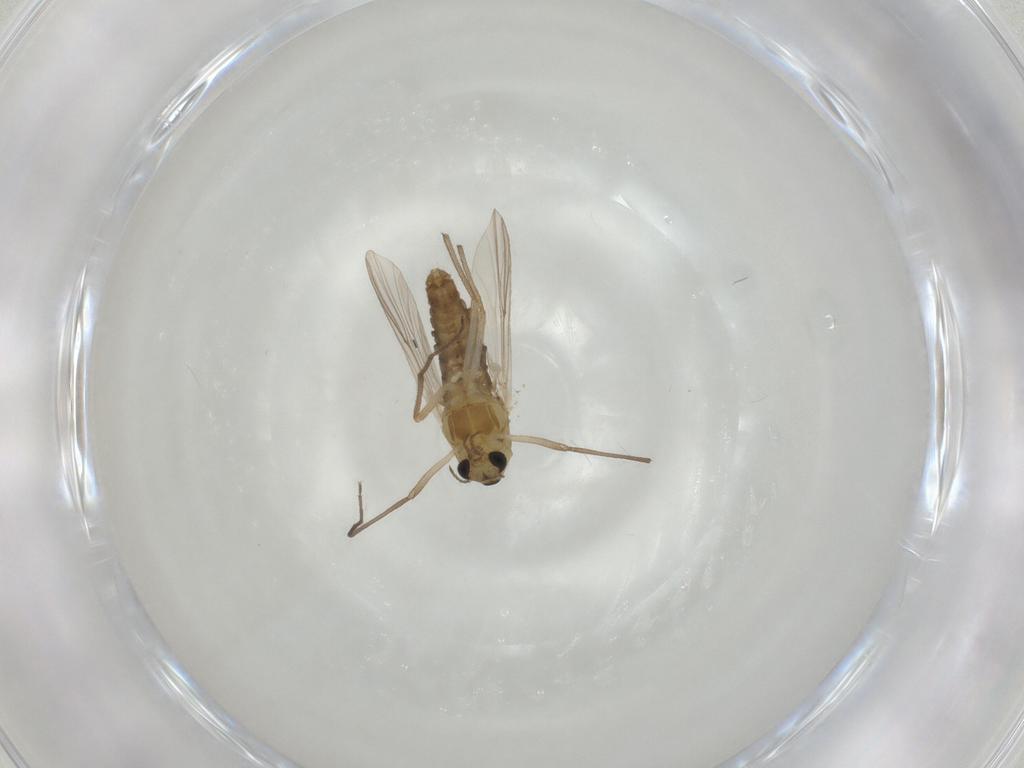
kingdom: Animalia
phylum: Arthropoda
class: Insecta
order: Diptera
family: Chironomidae
